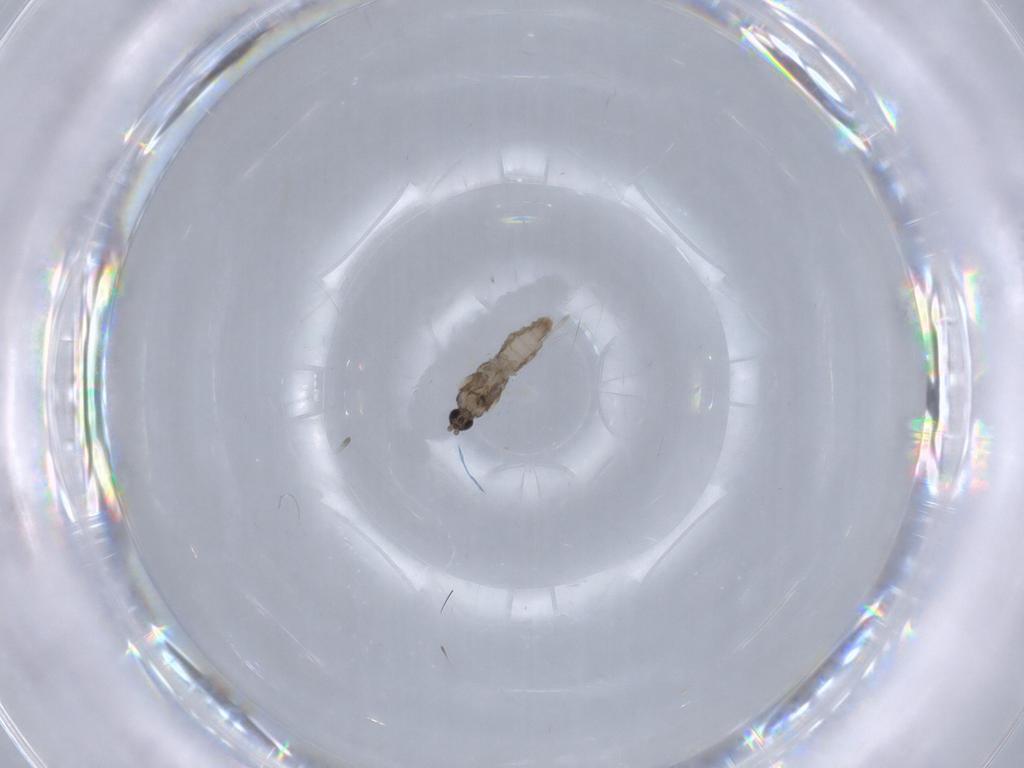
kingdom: Animalia
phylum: Arthropoda
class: Insecta
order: Diptera
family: Cecidomyiidae
